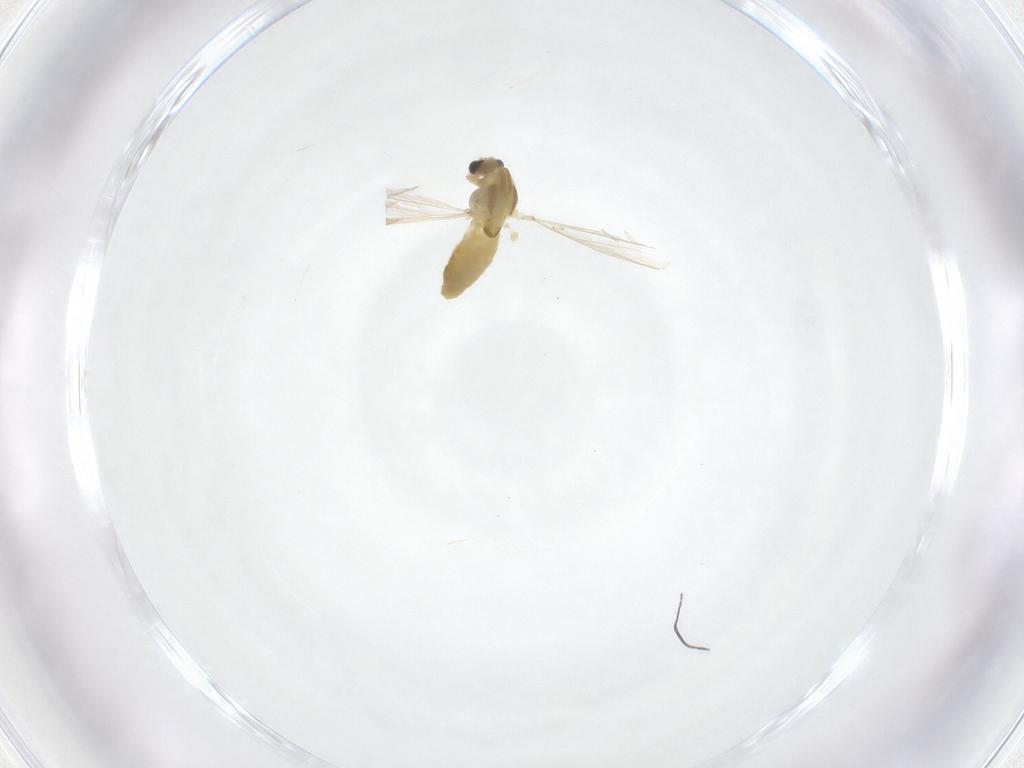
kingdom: Animalia
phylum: Arthropoda
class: Insecta
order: Diptera
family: Chironomidae
